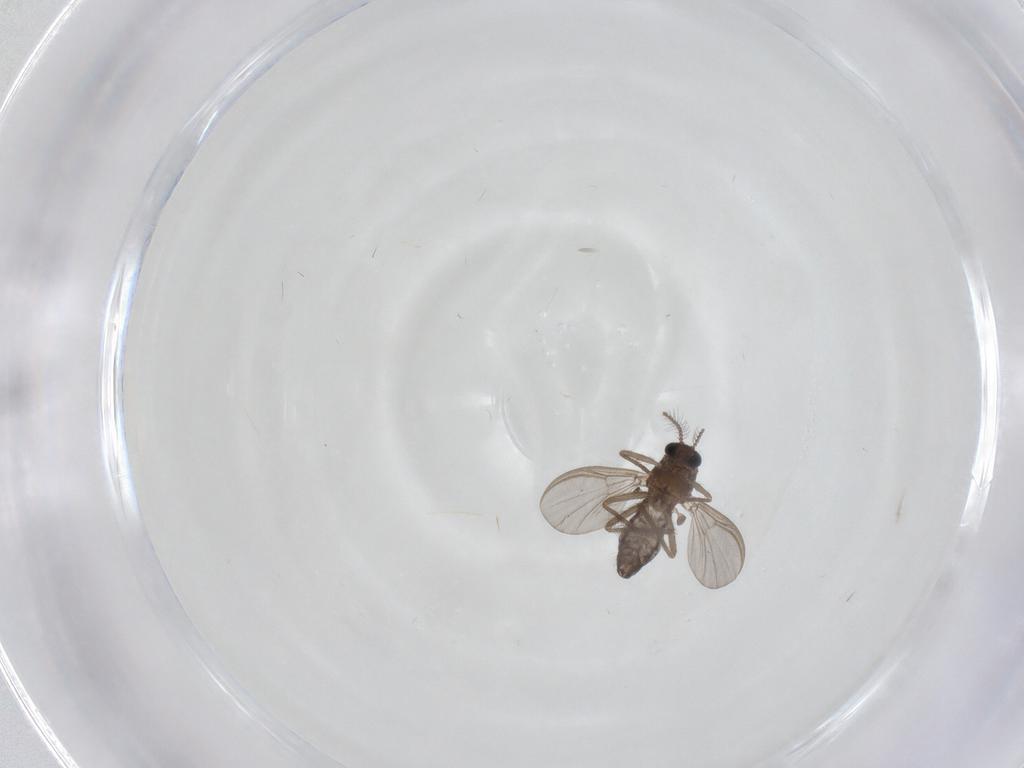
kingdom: Animalia
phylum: Arthropoda
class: Insecta
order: Diptera
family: Chironomidae
